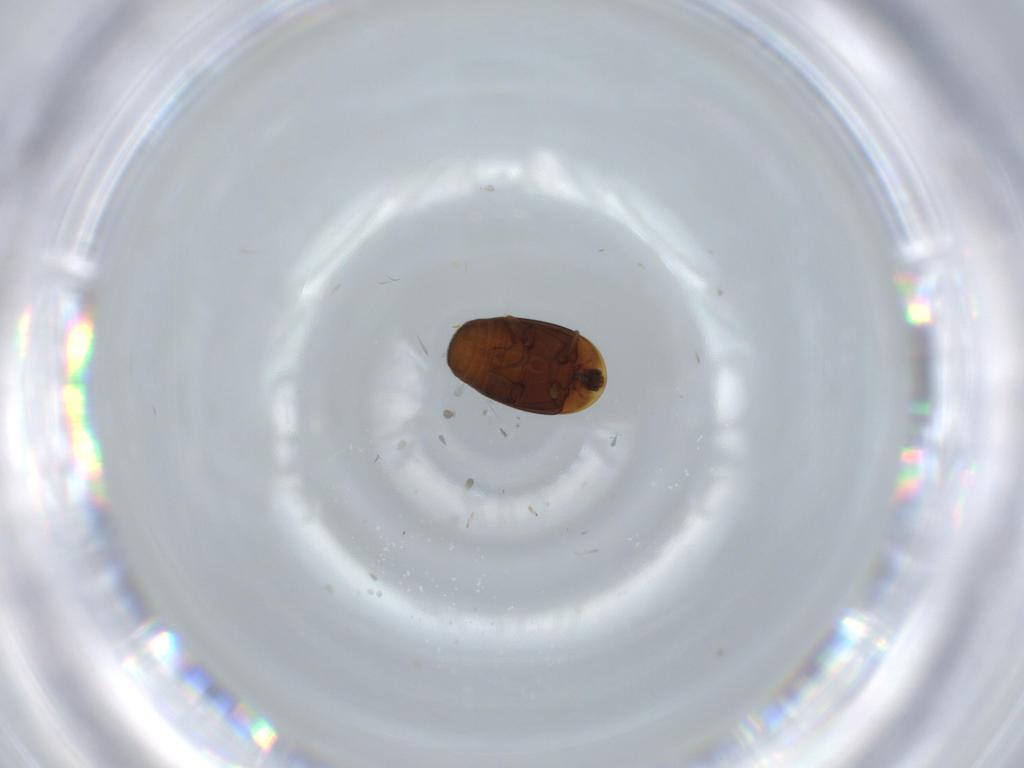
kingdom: Animalia
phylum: Arthropoda
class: Insecta
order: Coleoptera
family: Corylophidae
